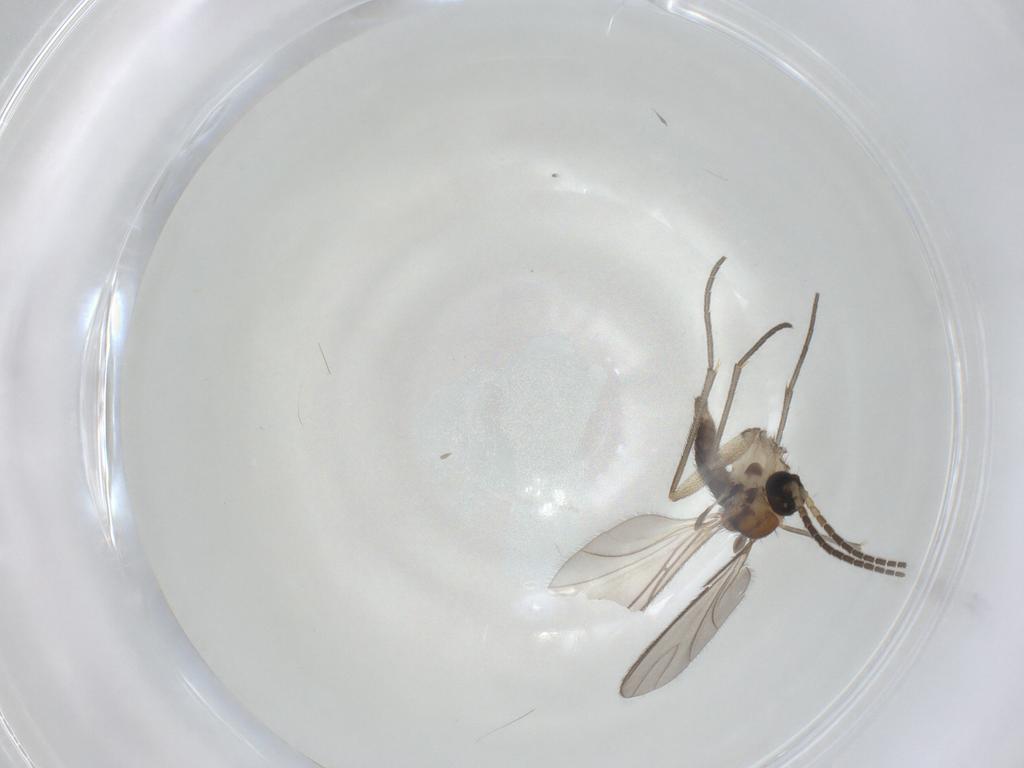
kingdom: Animalia
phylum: Arthropoda
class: Insecta
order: Diptera
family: Sciaridae
